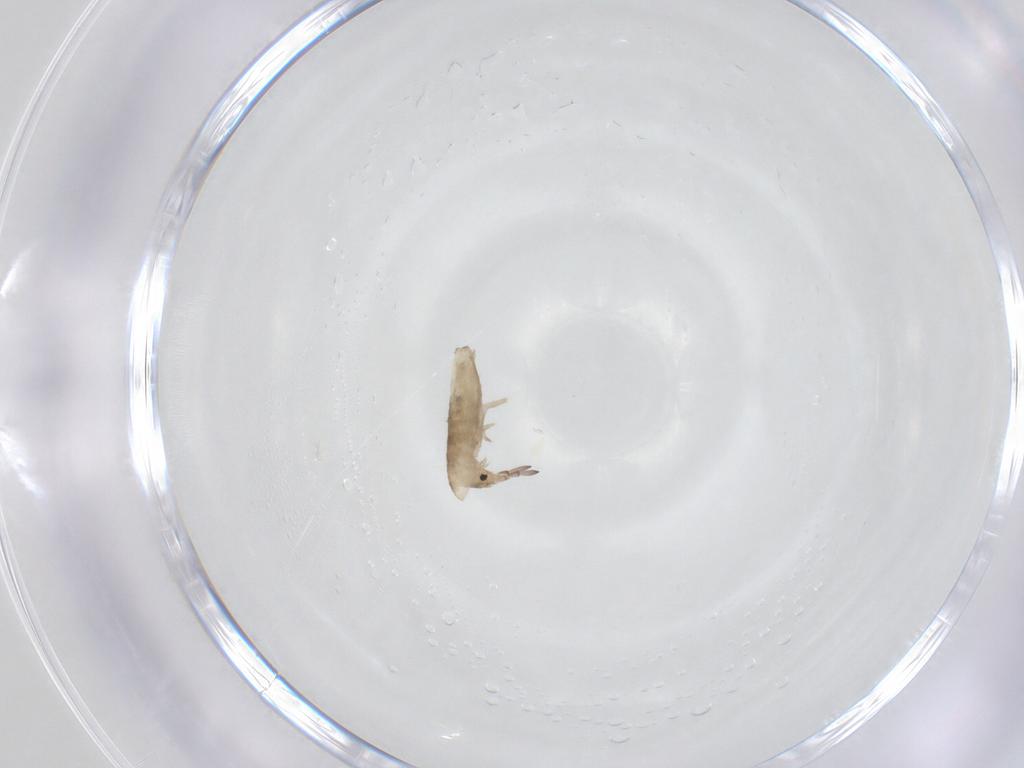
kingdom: Animalia
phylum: Arthropoda
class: Collembola
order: Entomobryomorpha
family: Entomobryidae
